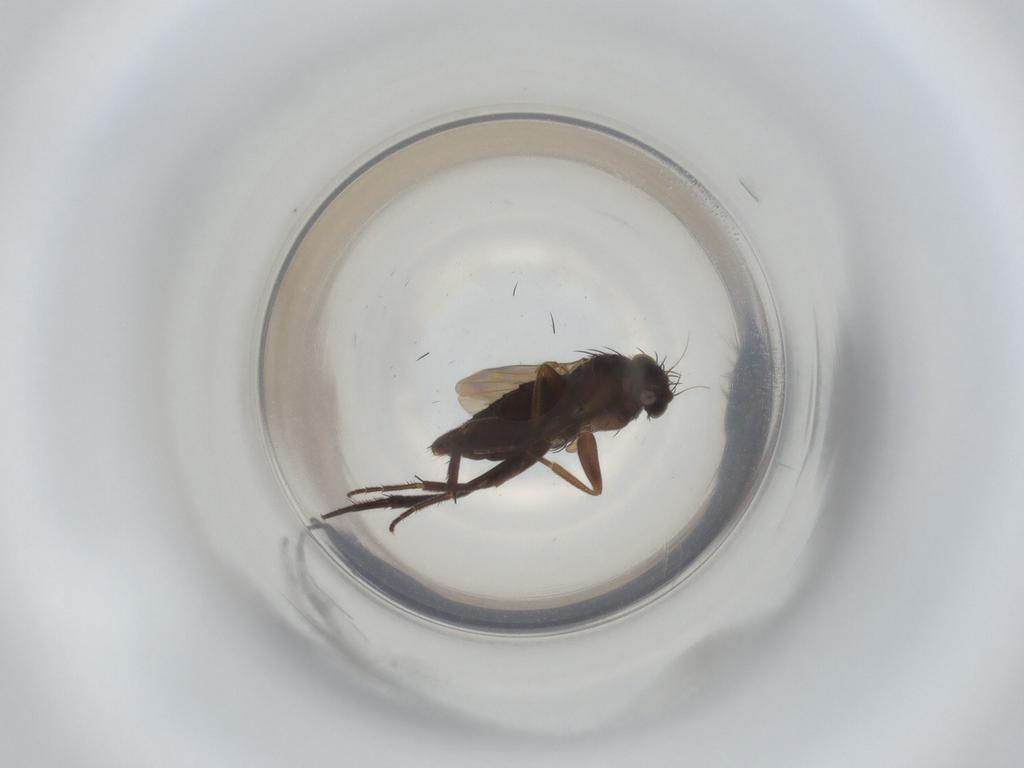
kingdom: Animalia
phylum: Arthropoda
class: Insecta
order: Diptera
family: Phoridae
